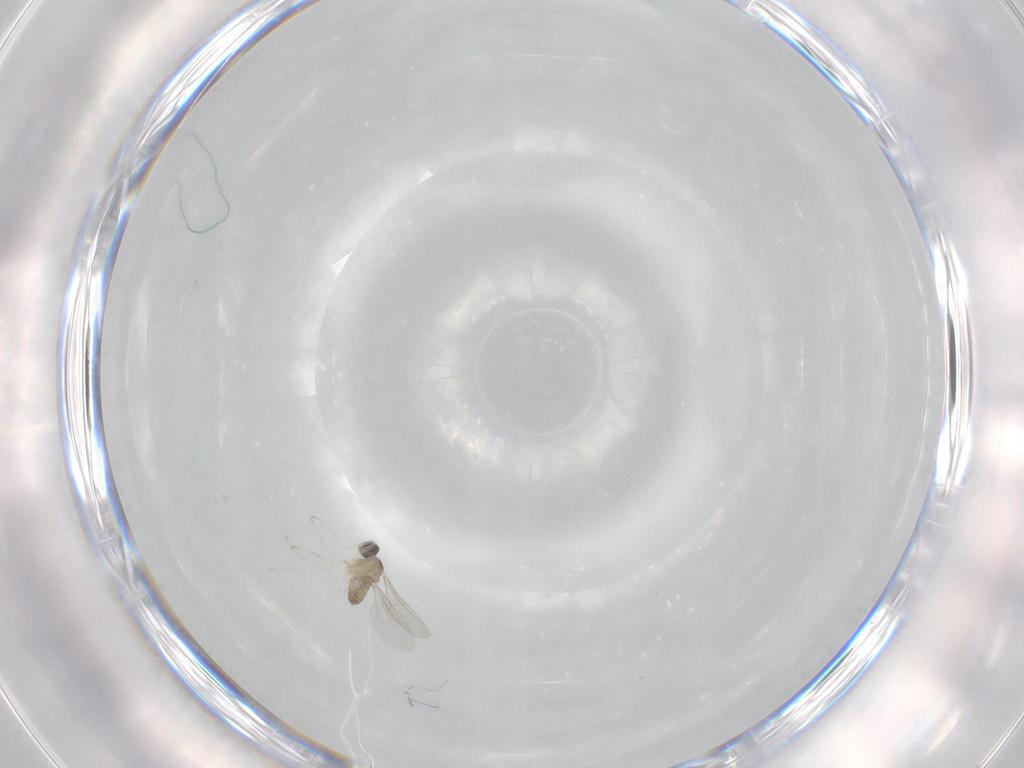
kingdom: Animalia
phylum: Arthropoda
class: Insecta
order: Diptera
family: Cecidomyiidae
